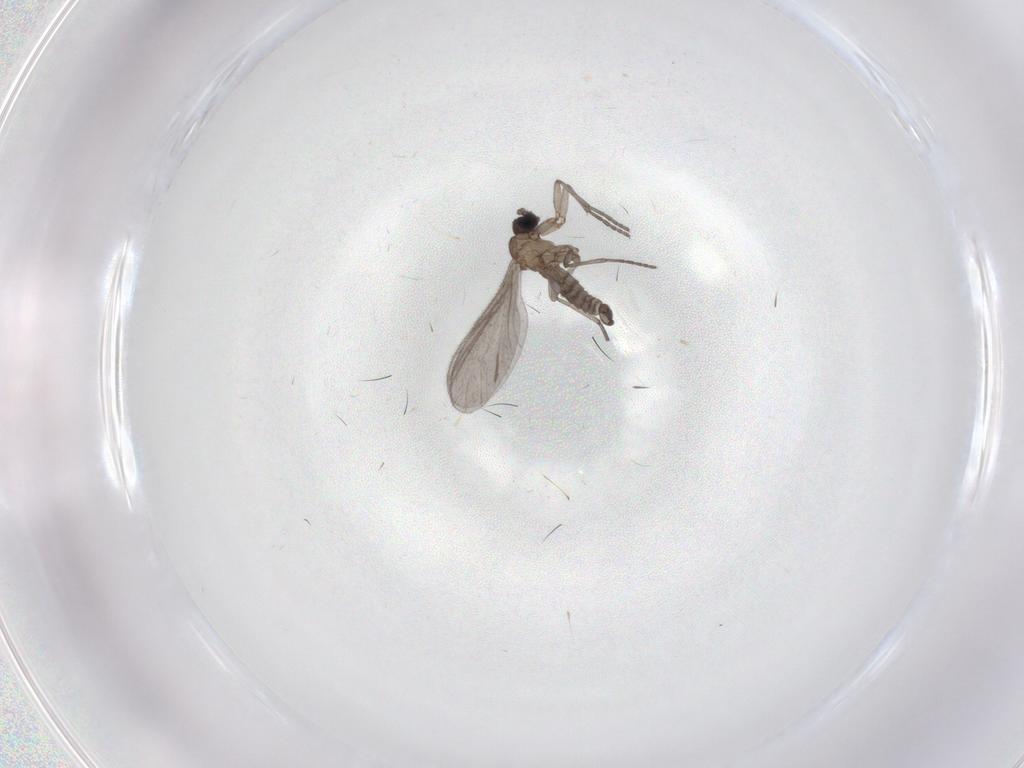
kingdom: Animalia
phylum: Arthropoda
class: Insecta
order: Diptera
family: Sciaridae
